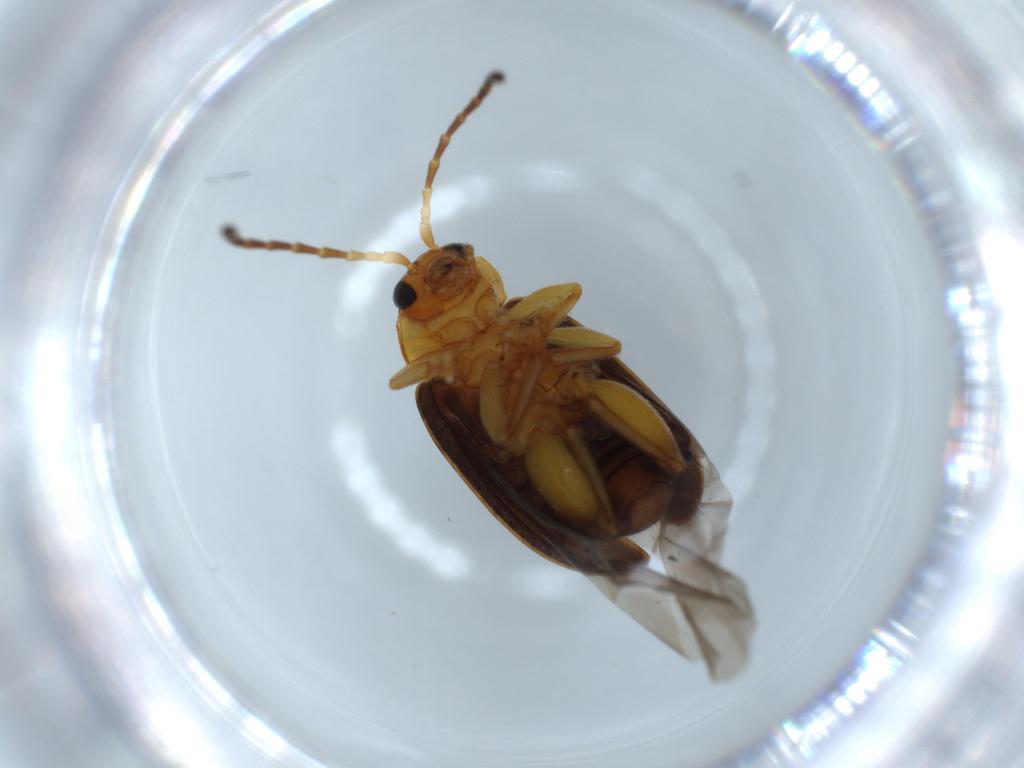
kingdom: Animalia
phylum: Arthropoda
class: Insecta
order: Coleoptera
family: Chrysomelidae
